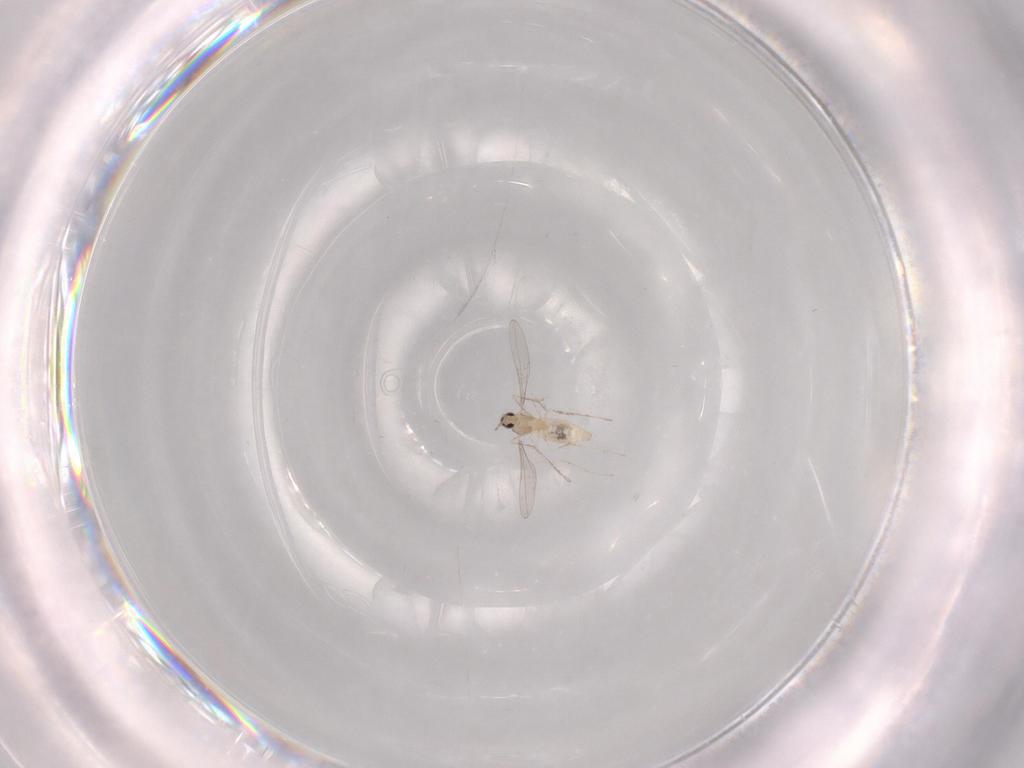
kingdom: Animalia
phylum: Arthropoda
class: Insecta
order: Diptera
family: Cecidomyiidae
